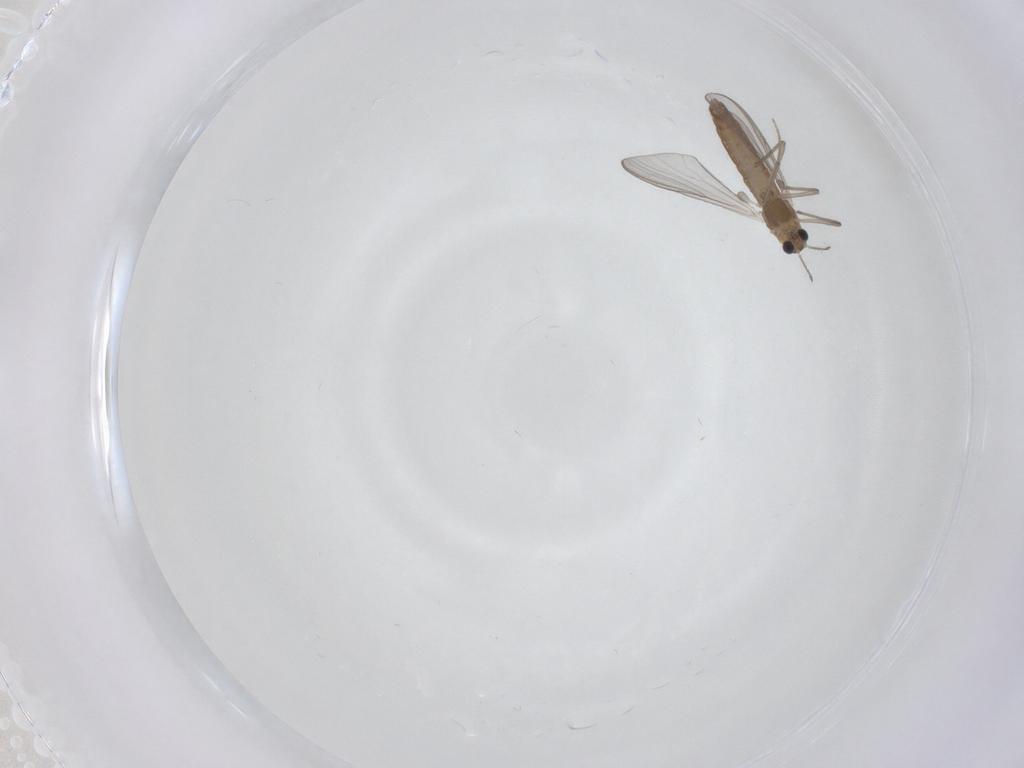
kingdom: Animalia
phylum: Arthropoda
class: Insecta
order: Diptera
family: Chironomidae
